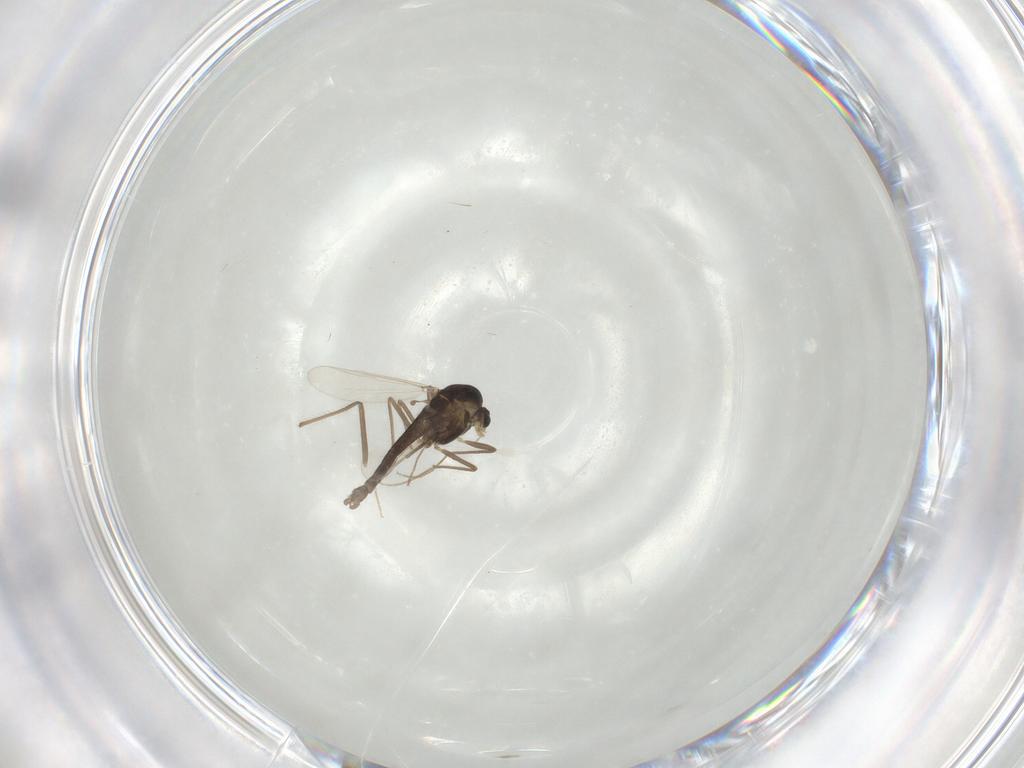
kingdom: Animalia
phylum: Arthropoda
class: Insecta
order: Diptera
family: Chironomidae
